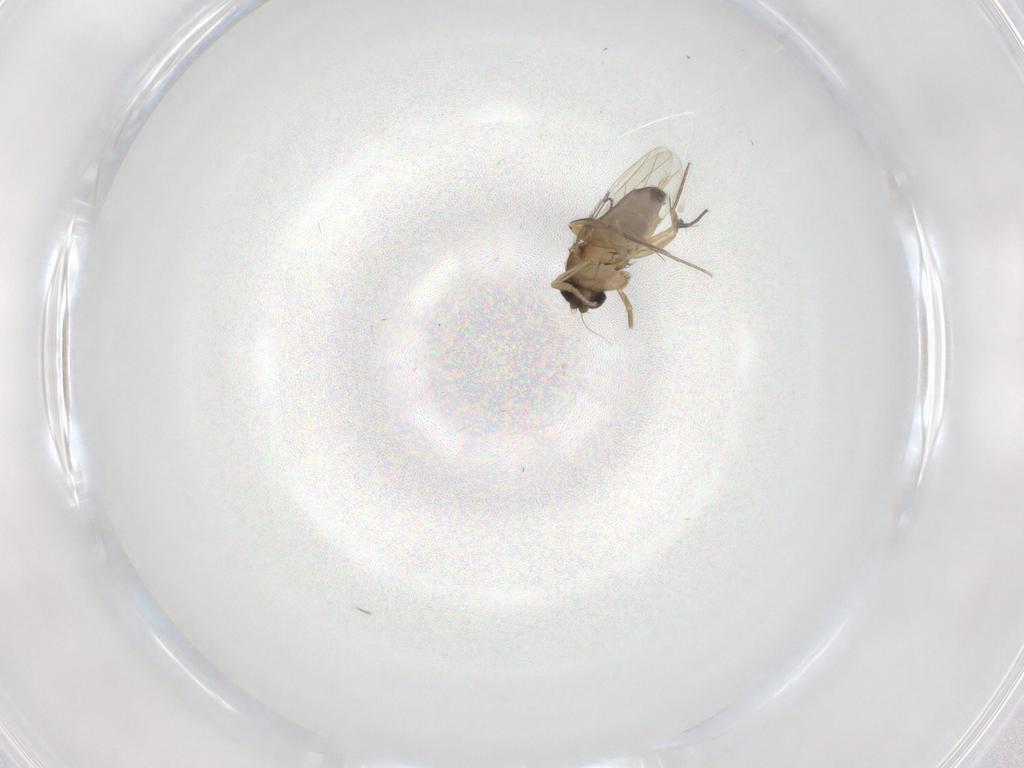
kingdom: Animalia
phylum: Arthropoda
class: Insecta
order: Diptera
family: Phoridae
